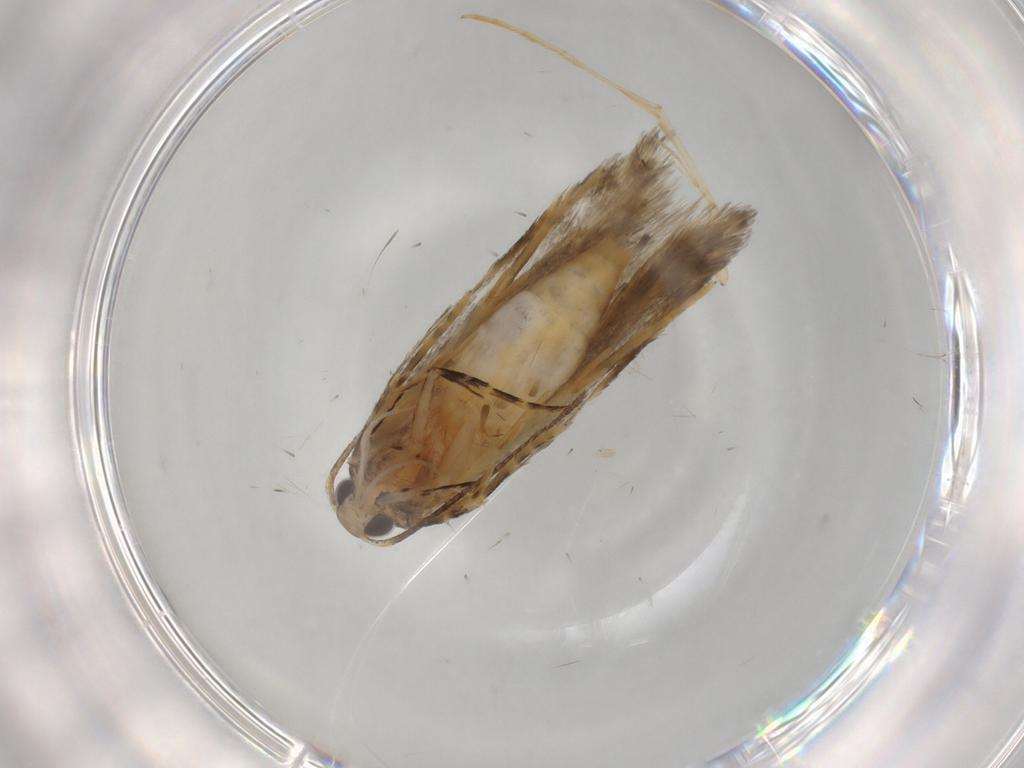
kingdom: Animalia
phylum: Arthropoda
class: Insecta
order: Lepidoptera
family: Autostichidae
